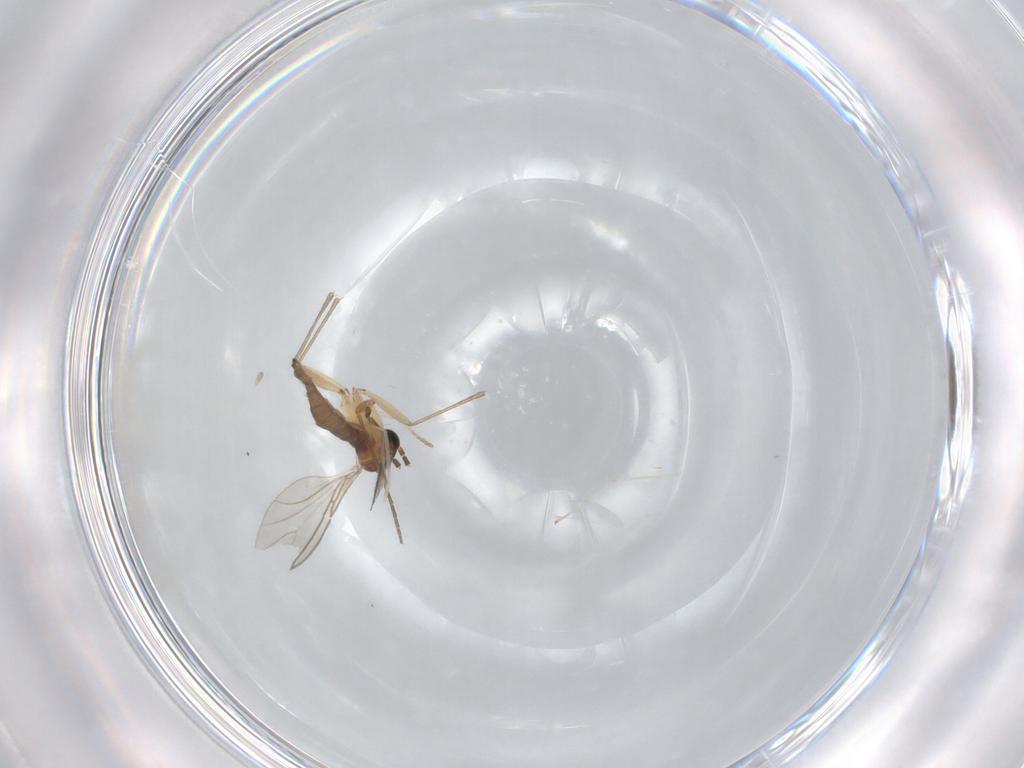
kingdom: Animalia
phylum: Arthropoda
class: Insecta
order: Diptera
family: Sciaridae
